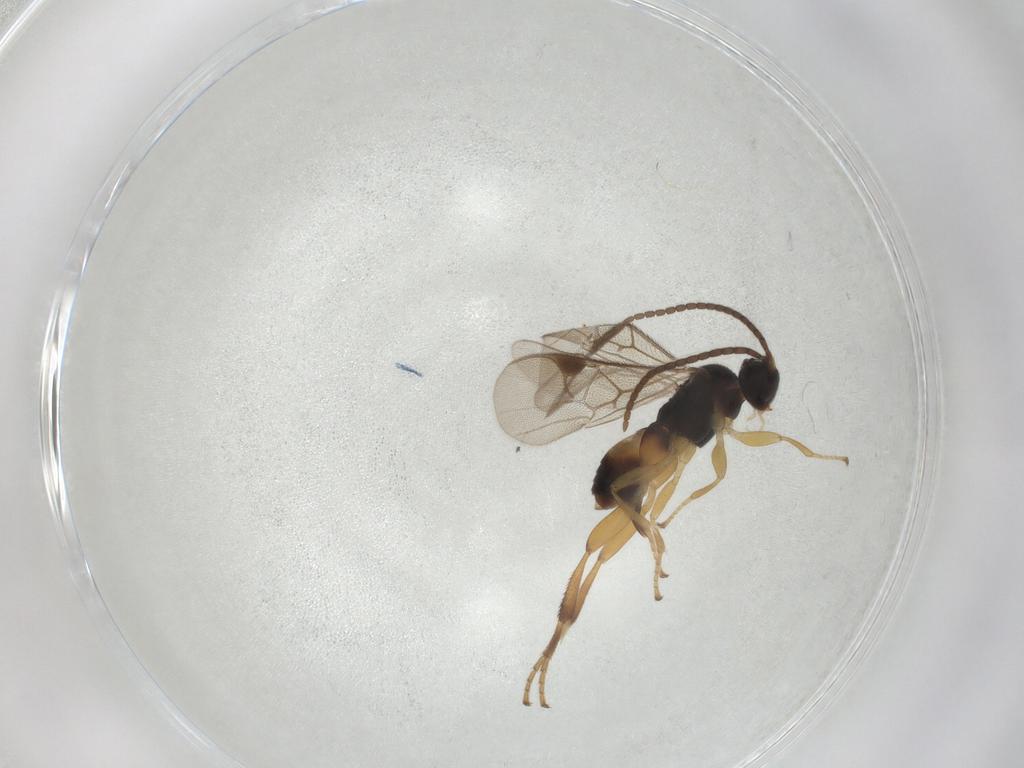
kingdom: Animalia
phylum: Arthropoda
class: Insecta
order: Hymenoptera
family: Braconidae
